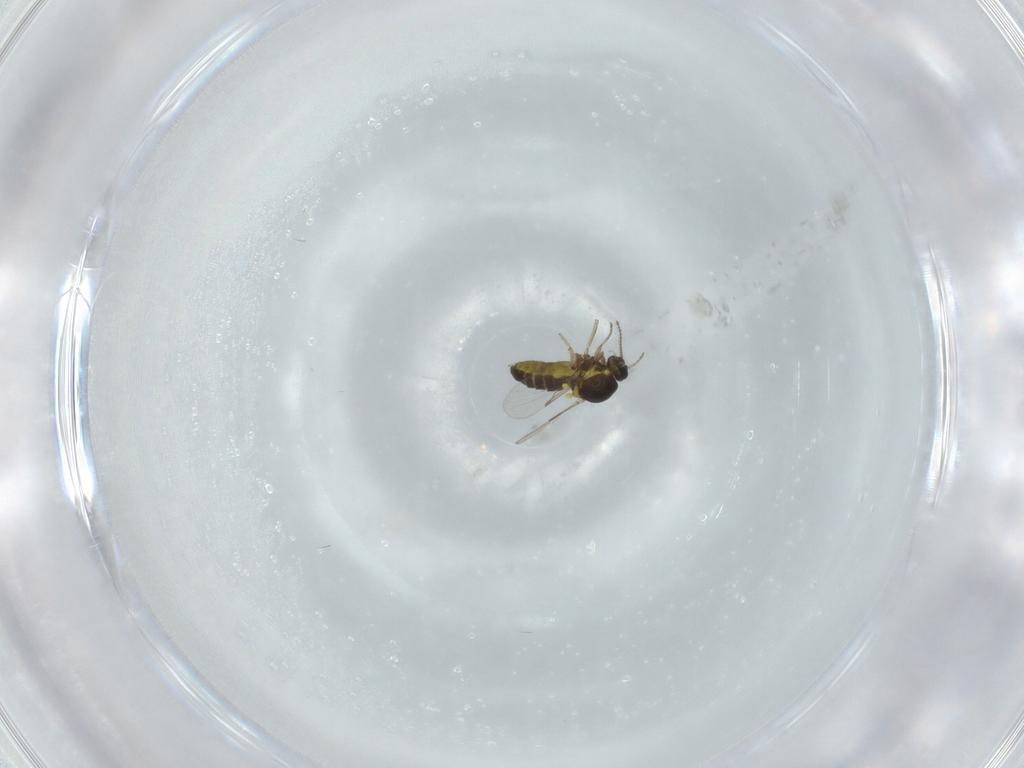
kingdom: Animalia
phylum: Arthropoda
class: Insecta
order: Diptera
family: Ceratopogonidae
